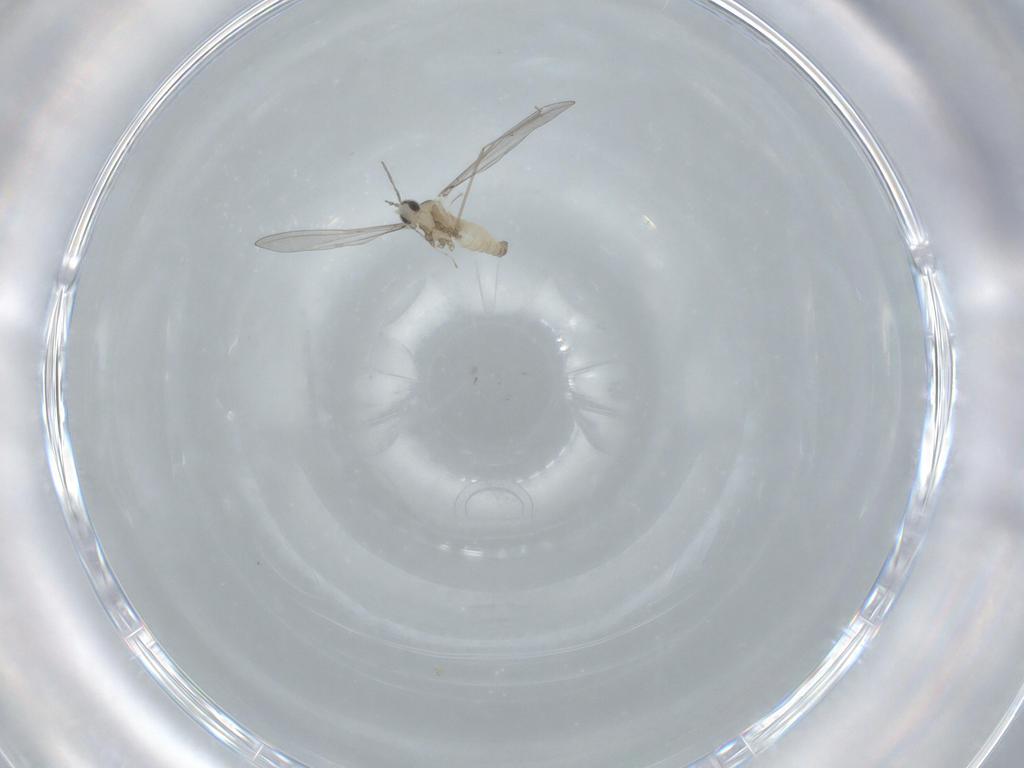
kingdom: Animalia
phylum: Arthropoda
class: Insecta
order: Diptera
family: Cecidomyiidae
